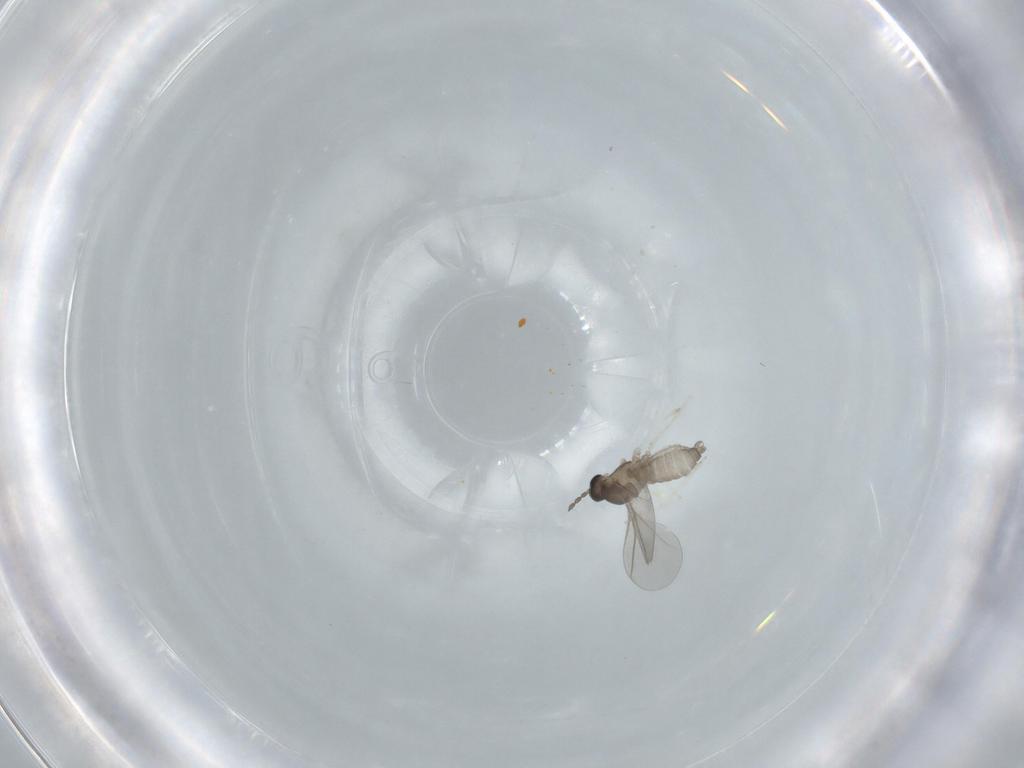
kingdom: Animalia
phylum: Arthropoda
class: Insecta
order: Diptera
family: Cecidomyiidae
